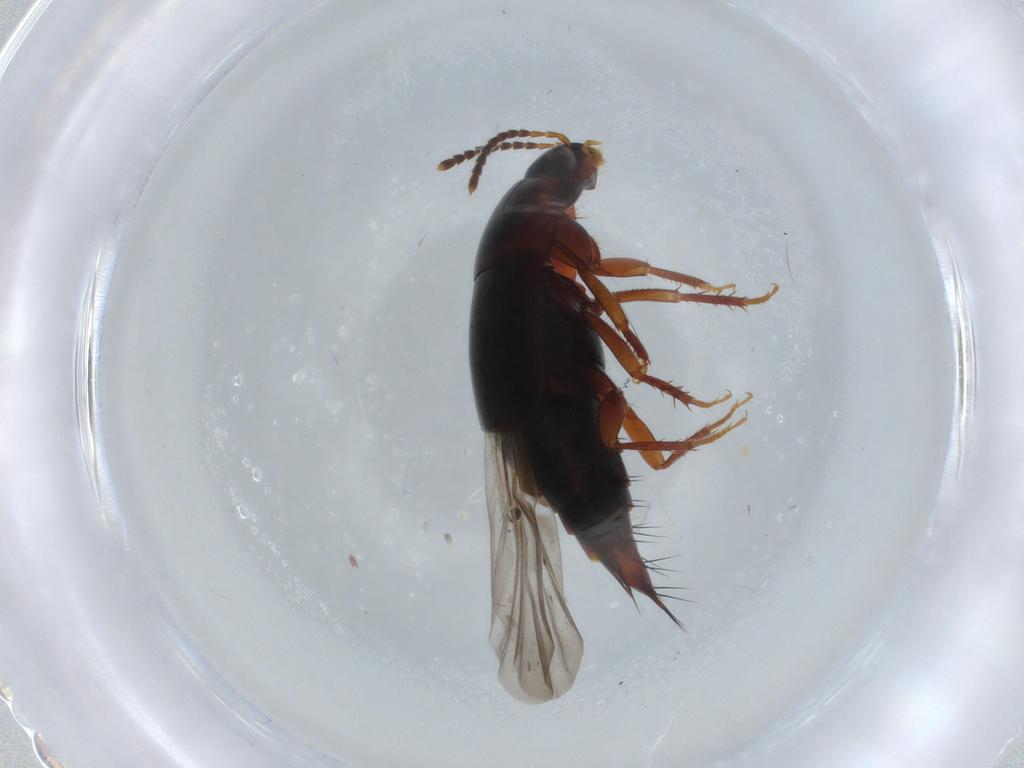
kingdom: Animalia
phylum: Arthropoda
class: Insecta
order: Coleoptera
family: Staphylinidae
